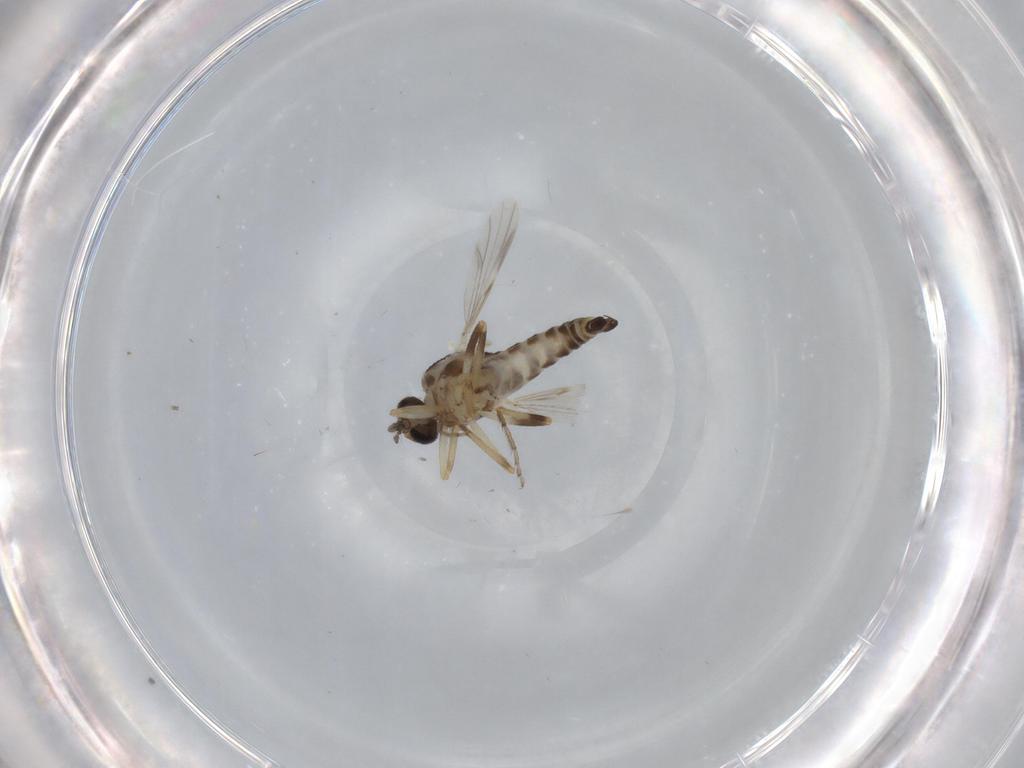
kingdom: Animalia
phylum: Arthropoda
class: Insecta
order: Diptera
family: Ceratopogonidae
